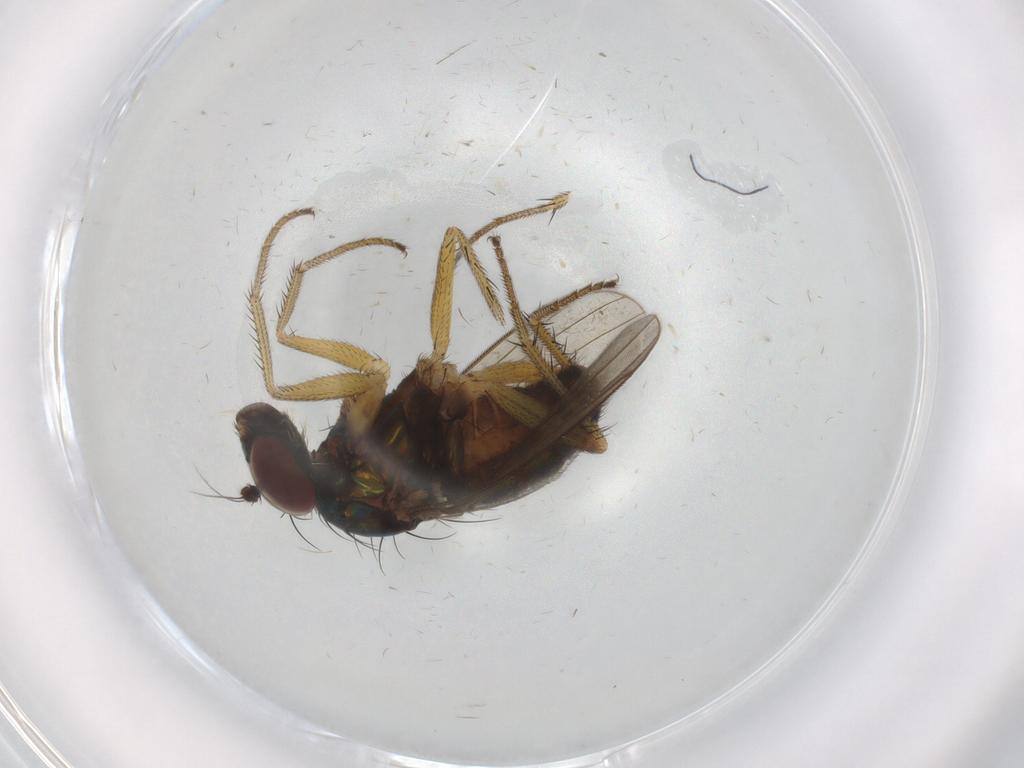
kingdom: Animalia
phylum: Arthropoda
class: Insecta
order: Diptera
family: Dolichopodidae
